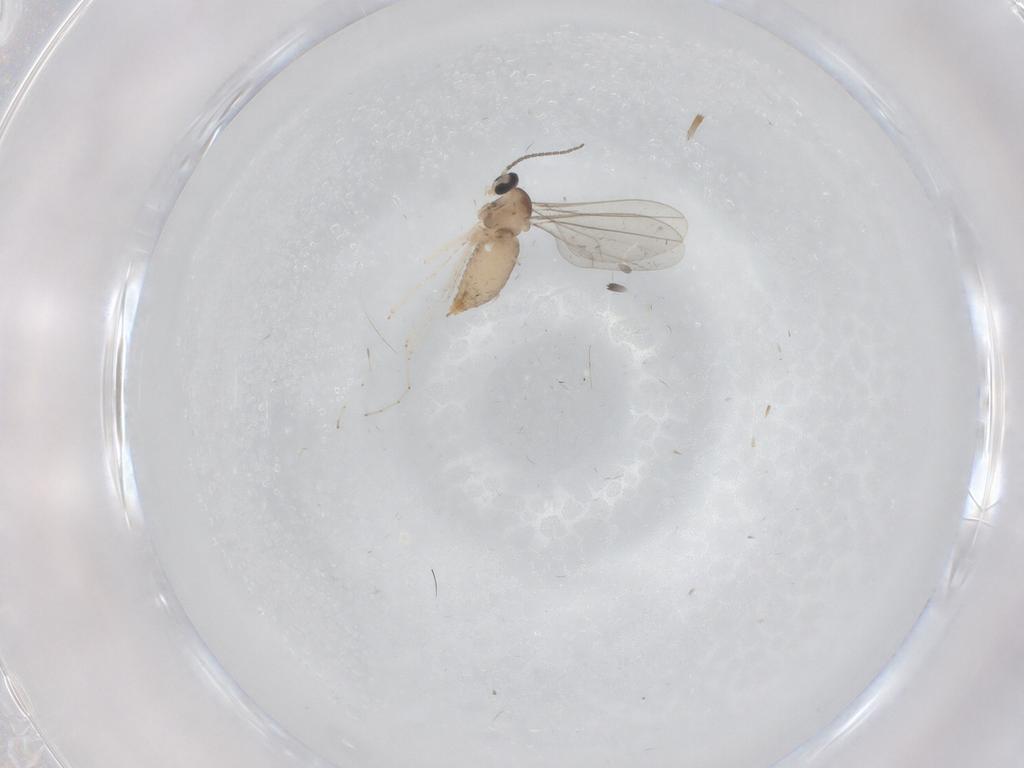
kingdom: Animalia
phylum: Arthropoda
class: Insecta
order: Diptera
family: Cecidomyiidae
